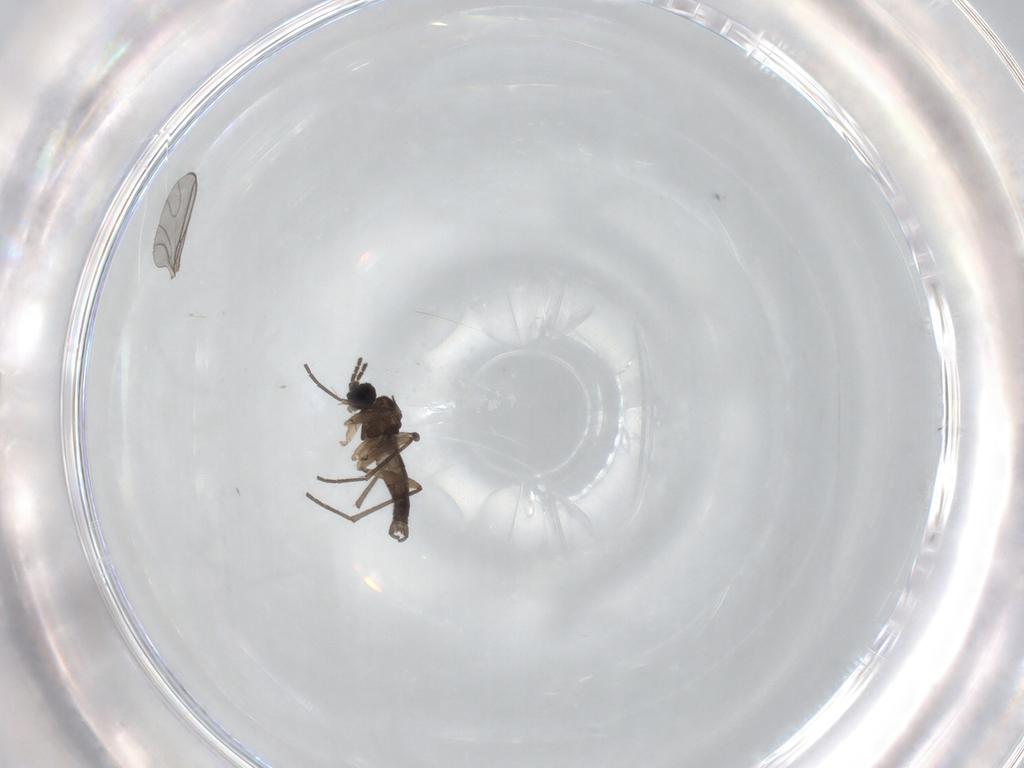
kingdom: Animalia
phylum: Arthropoda
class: Insecta
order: Diptera
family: Sciaridae
